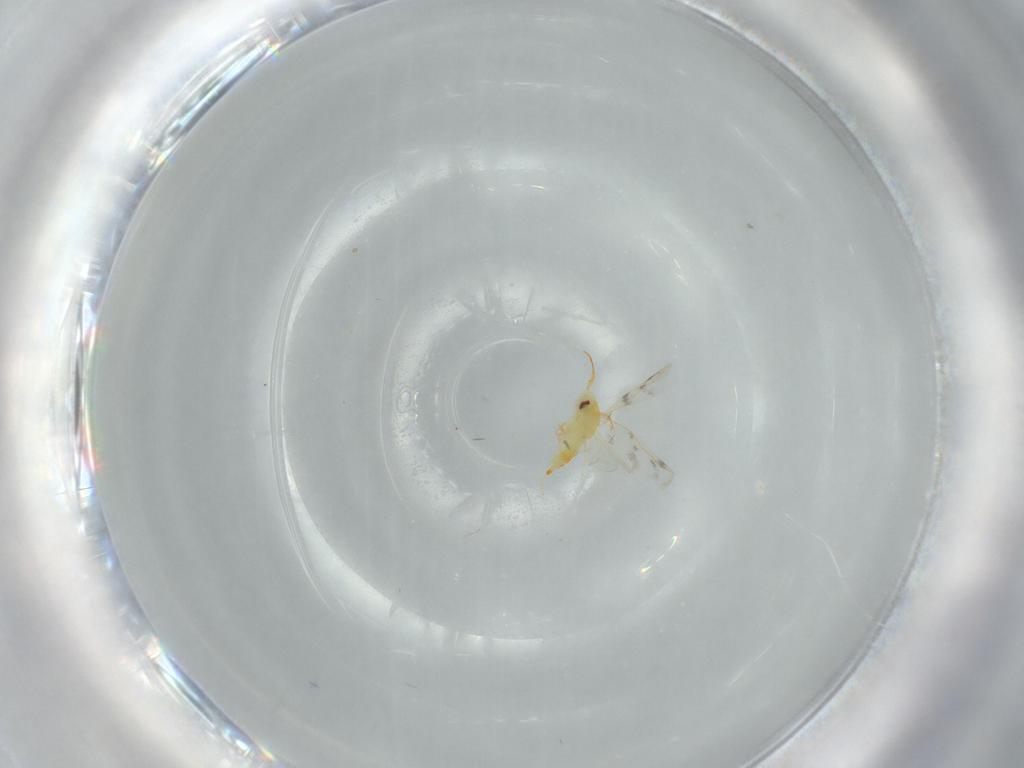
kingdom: Animalia
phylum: Arthropoda
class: Insecta
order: Hemiptera
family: Aleyrodidae
